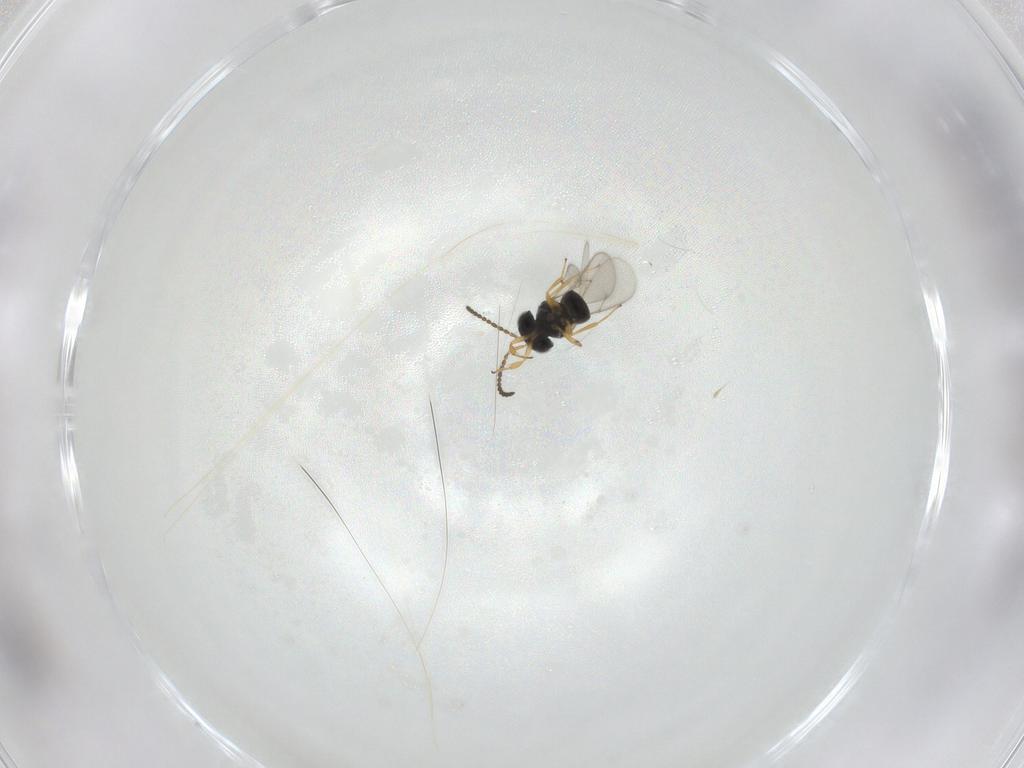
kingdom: Animalia
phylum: Arthropoda
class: Insecta
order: Hymenoptera
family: Scelionidae
